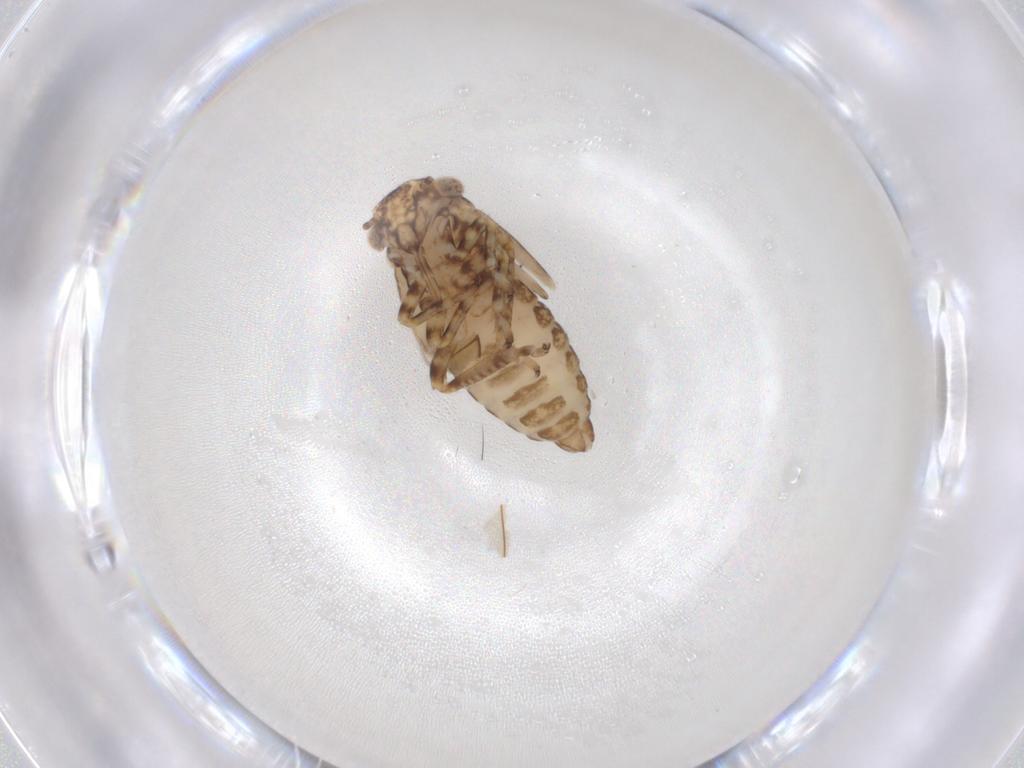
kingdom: Animalia
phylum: Arthropoda
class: Insecta
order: Hemiptera
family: Cicadellidae
